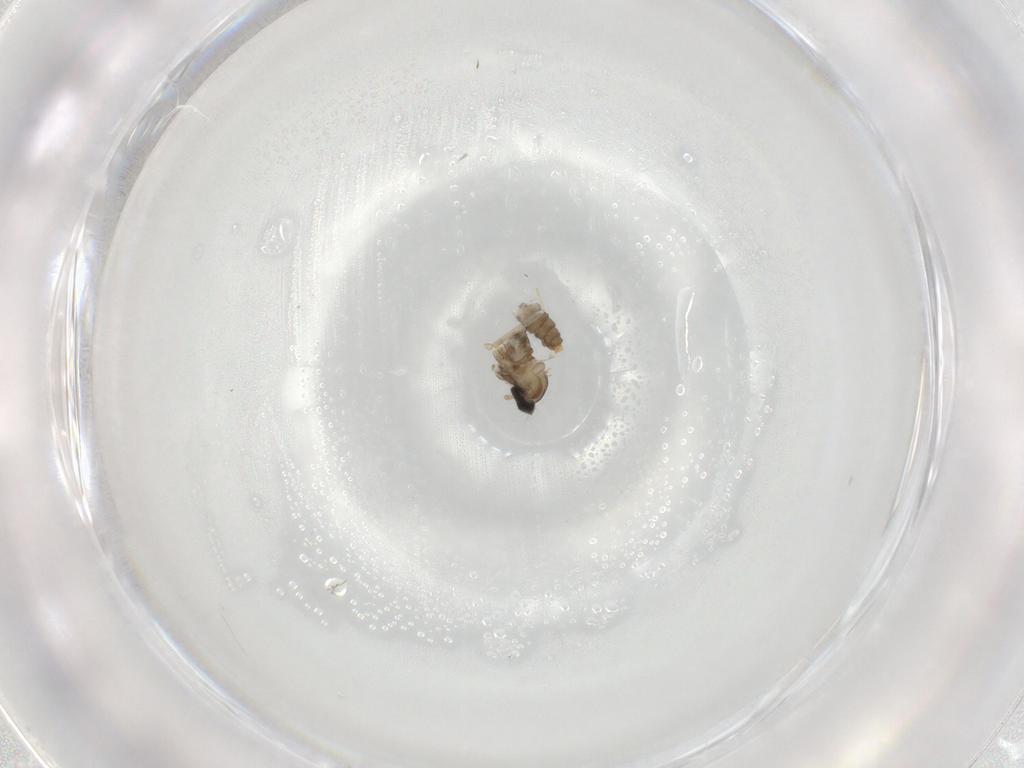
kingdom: Animalia
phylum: Arthropoda
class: Insecta
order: Diptera
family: Cecidomyiidae
